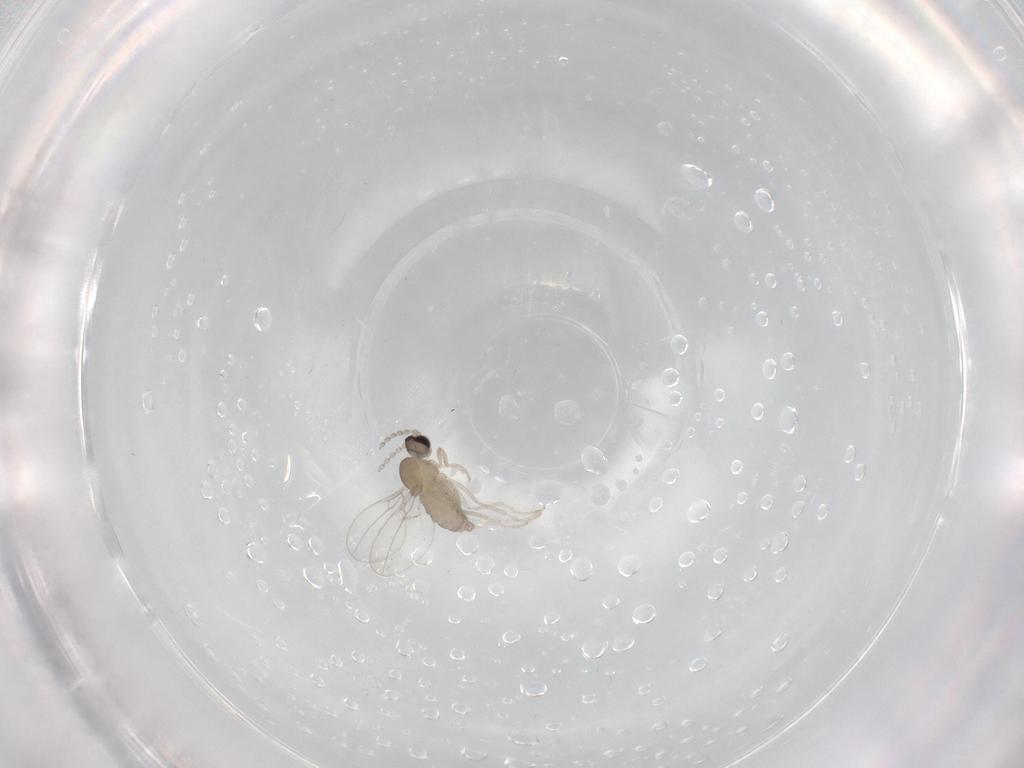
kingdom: Animalia
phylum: Arthropoda
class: Insecta
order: Diptera
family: Cecidomyiidae
